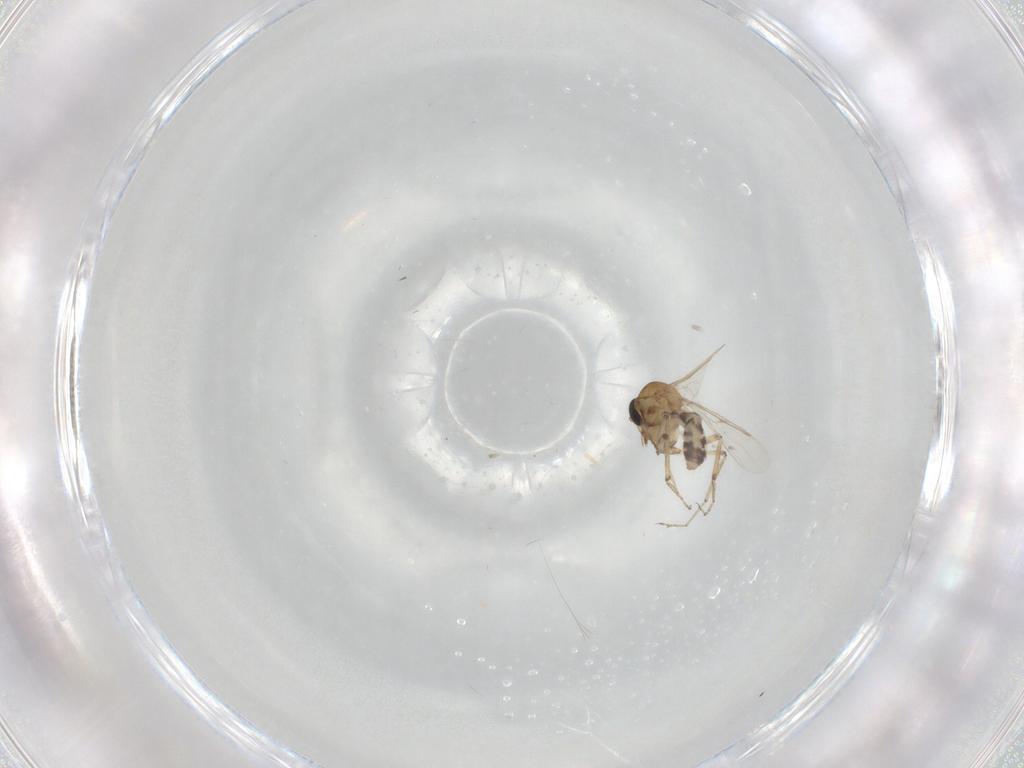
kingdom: Animalia
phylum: Arthropoda
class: Insecta
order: Diptera
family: Ceratopogonidae
